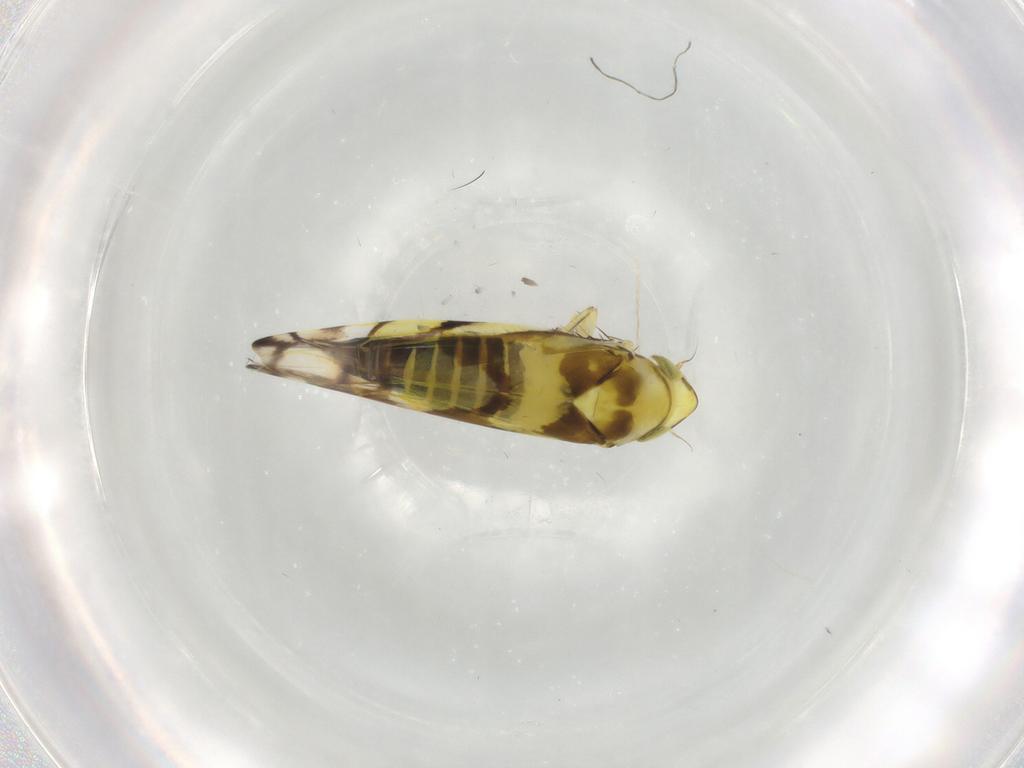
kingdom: Animalia
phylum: Arthropoda
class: Insecta
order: Hemiptera
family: Cicadellidae
